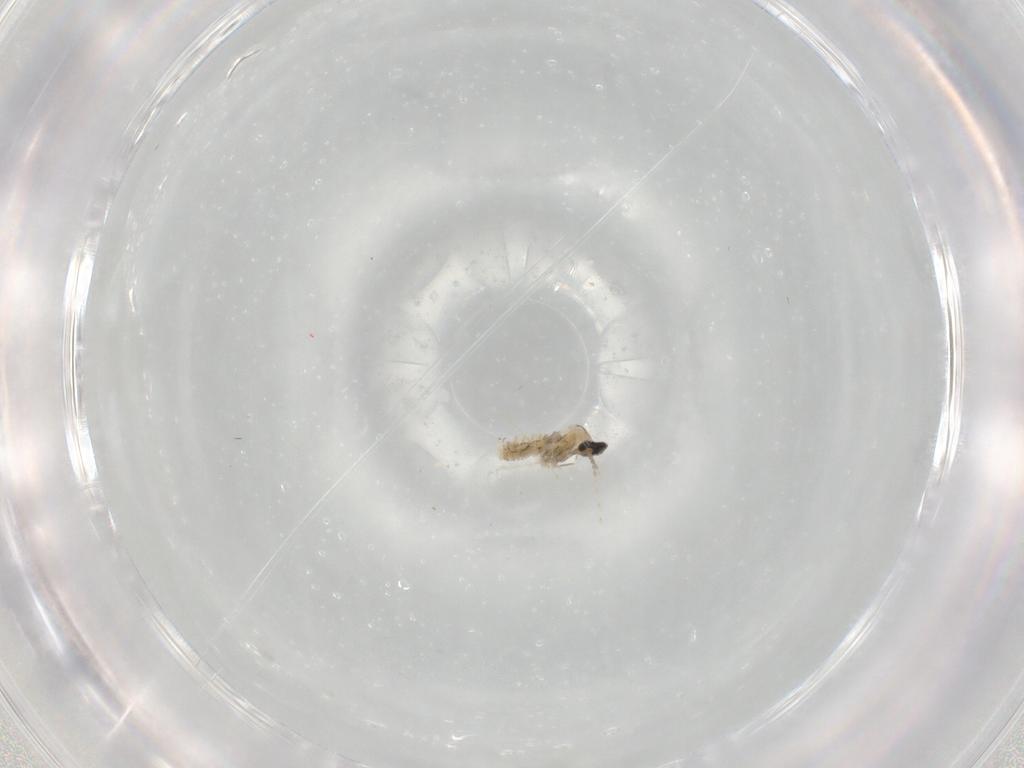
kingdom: Animalia
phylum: Arthropoda
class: Insecta
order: Diptera
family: Cecidomyiidae
